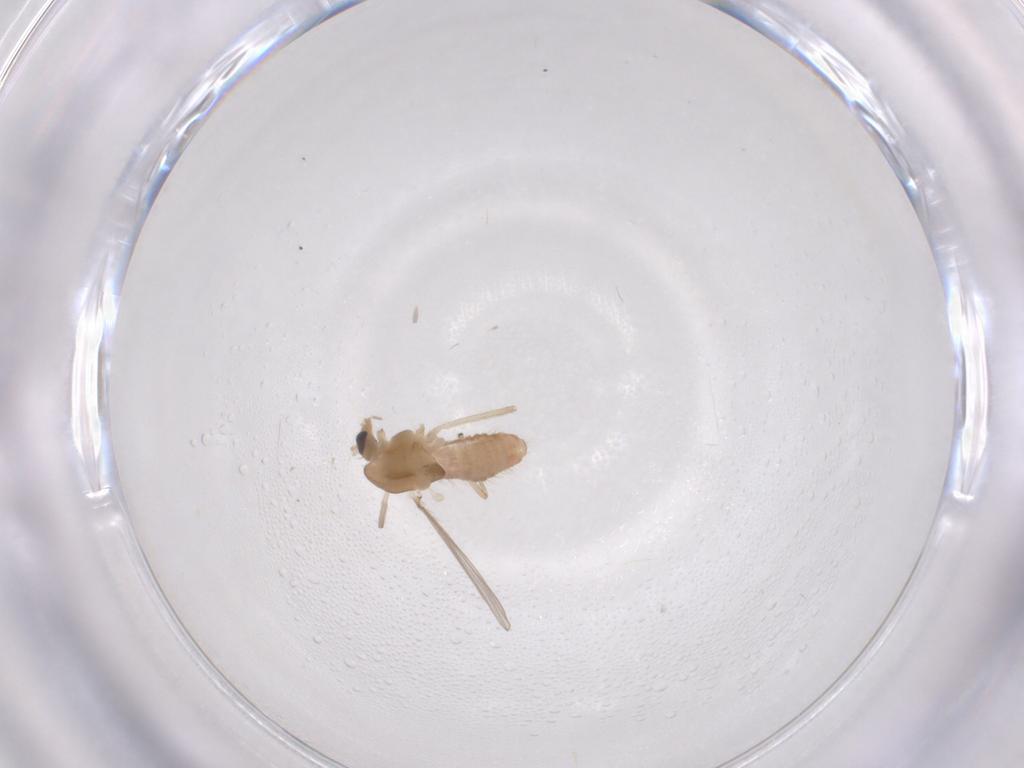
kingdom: Animalia
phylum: Arthropoda
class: Insecta
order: Diptera
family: Chironomidae
